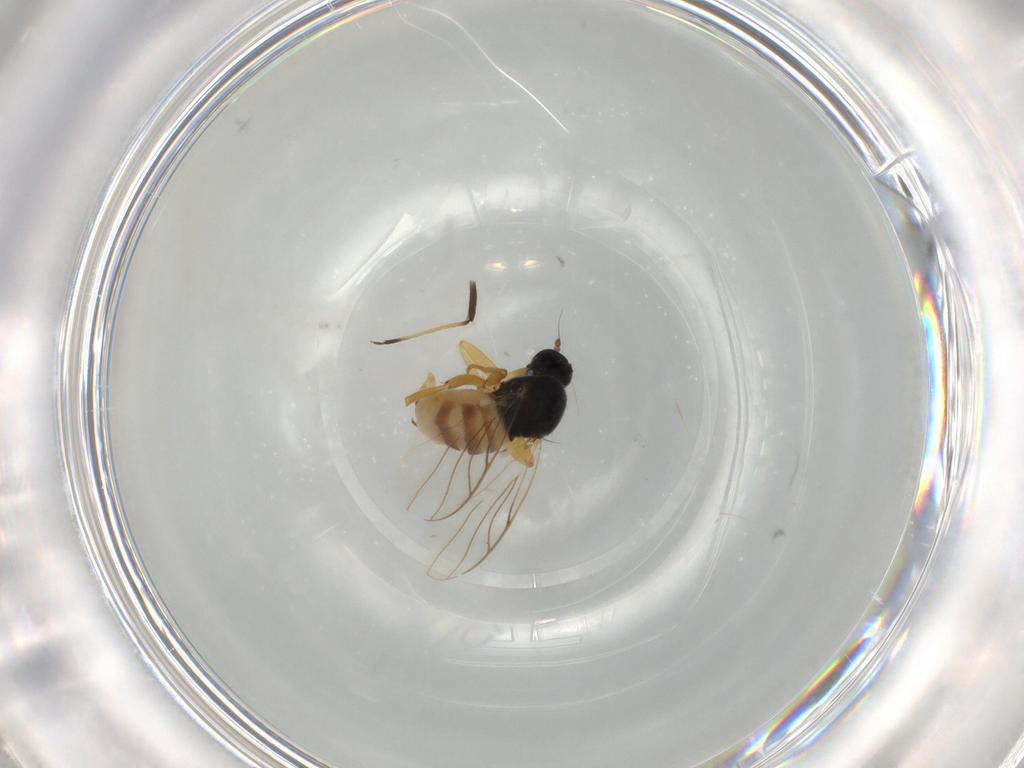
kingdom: Animalia
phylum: Arthropoda
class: Insecta
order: Diptera
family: Hybotidae
